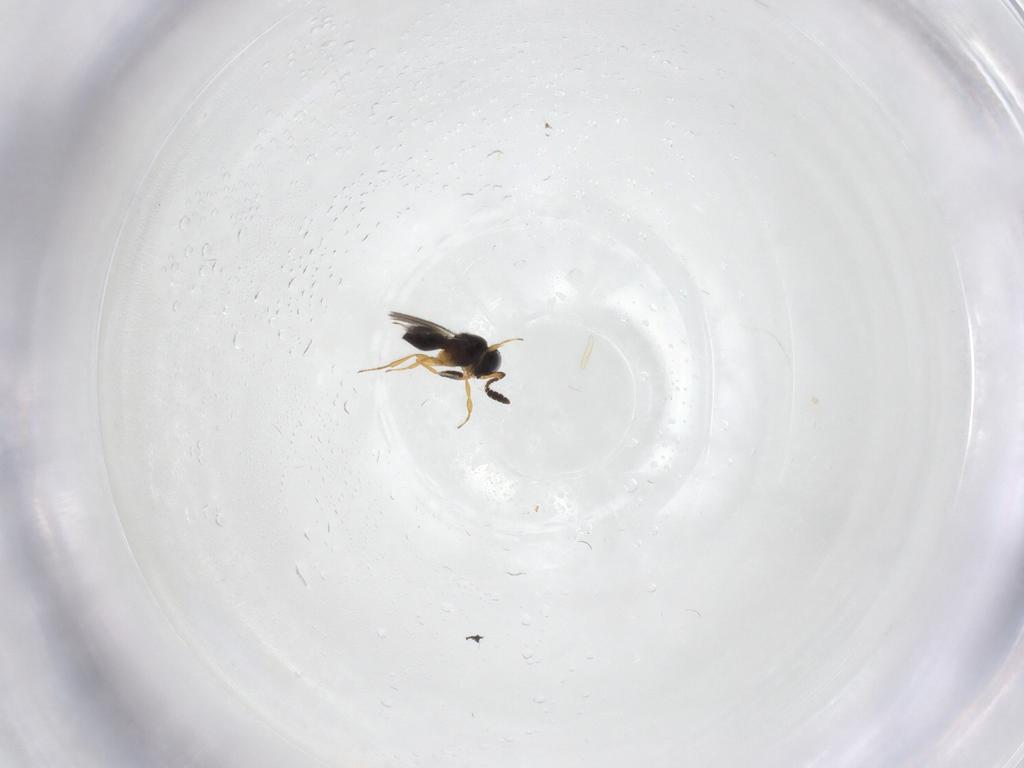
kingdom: Animalia
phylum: Arthropoda
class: Insecta
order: Hymenoptera
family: Scelionidae
